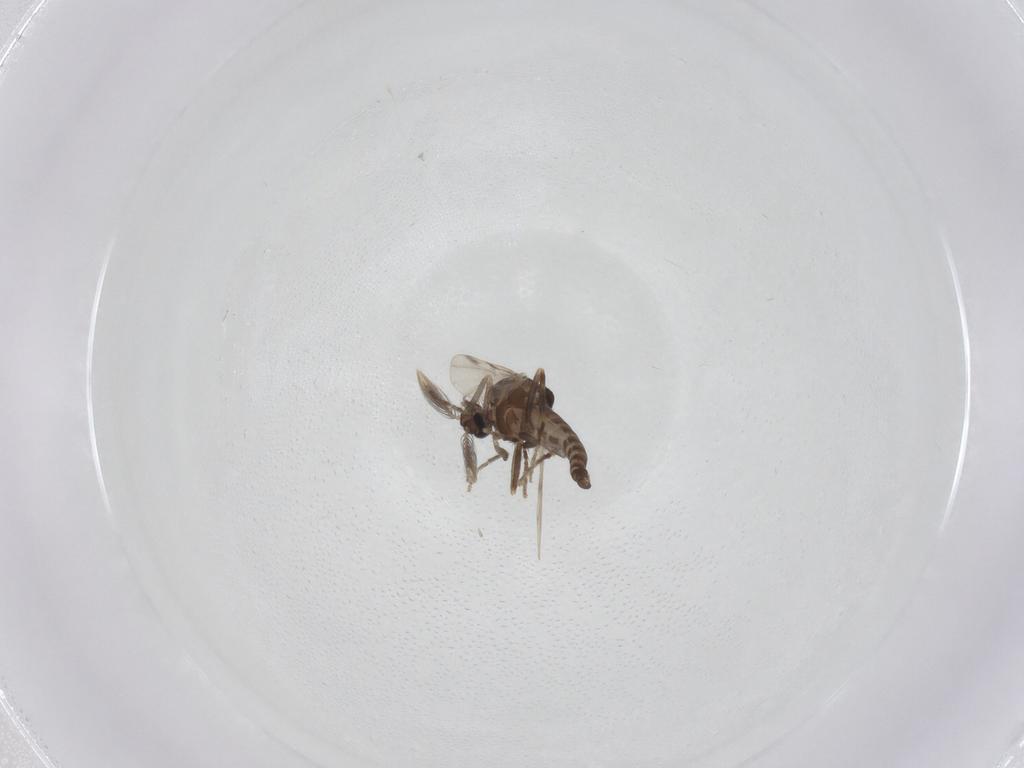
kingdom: Animalia
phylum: Arthropoda
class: Insecta
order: Diptera
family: Ceratopogonidae
